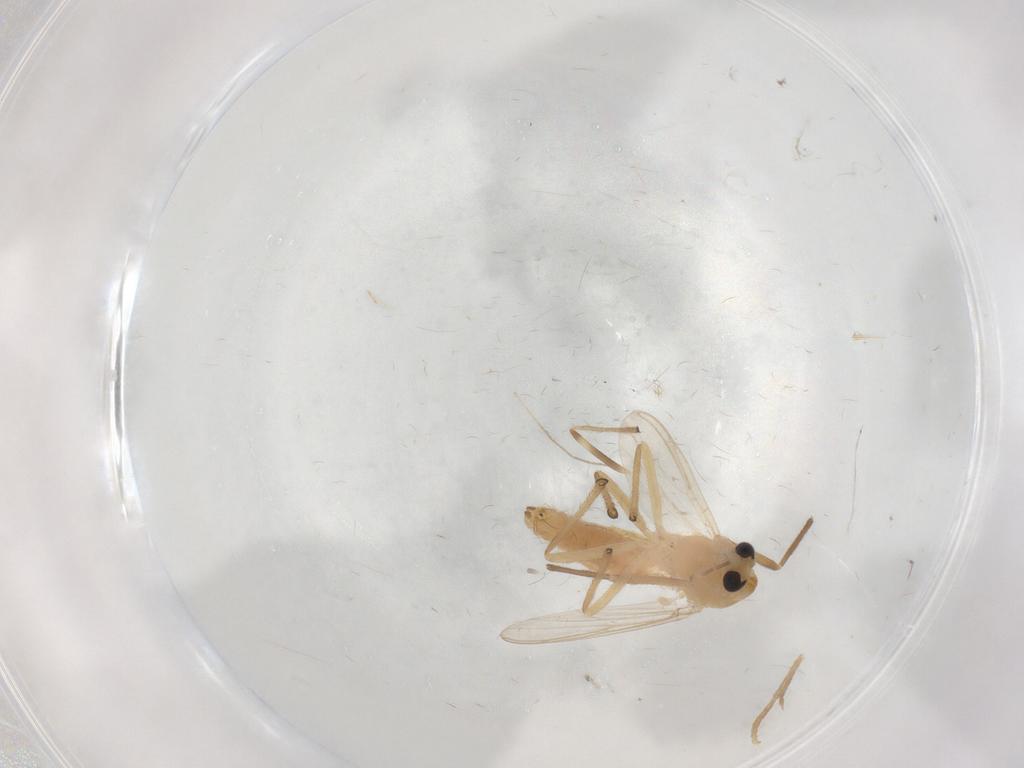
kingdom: Animalia
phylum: Arthropoda
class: Insecta
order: Diptera
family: Chironomidae
